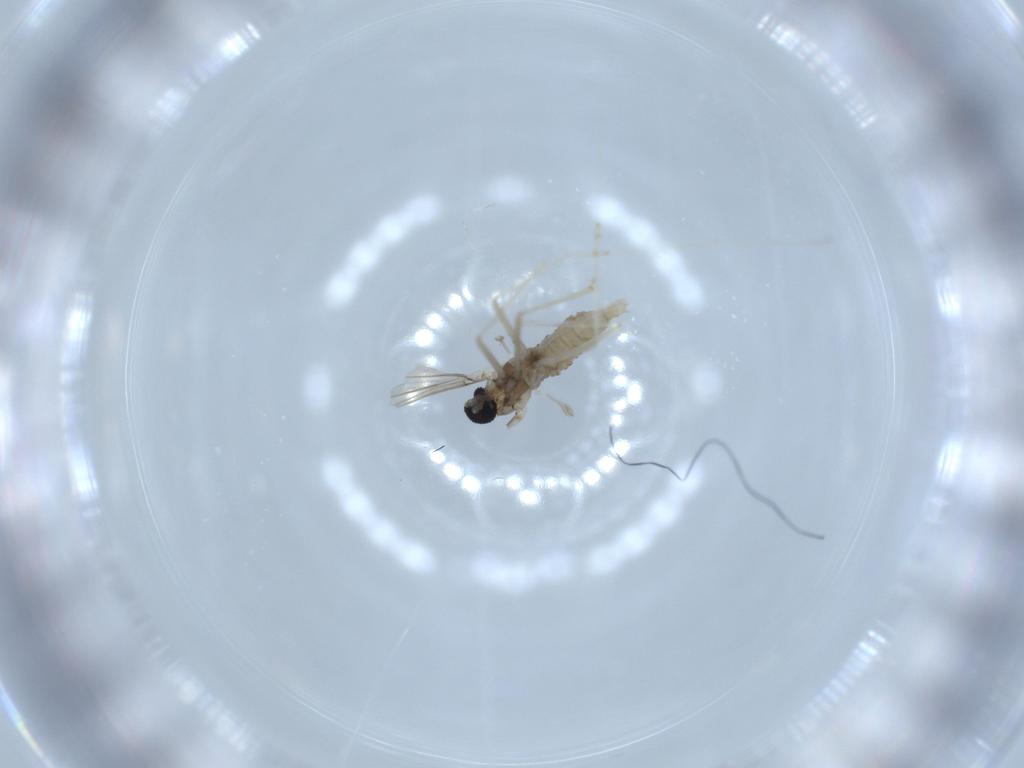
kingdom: Animalia
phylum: Arthropoda
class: Insecta
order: Diptera
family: Cecidomyiidae
